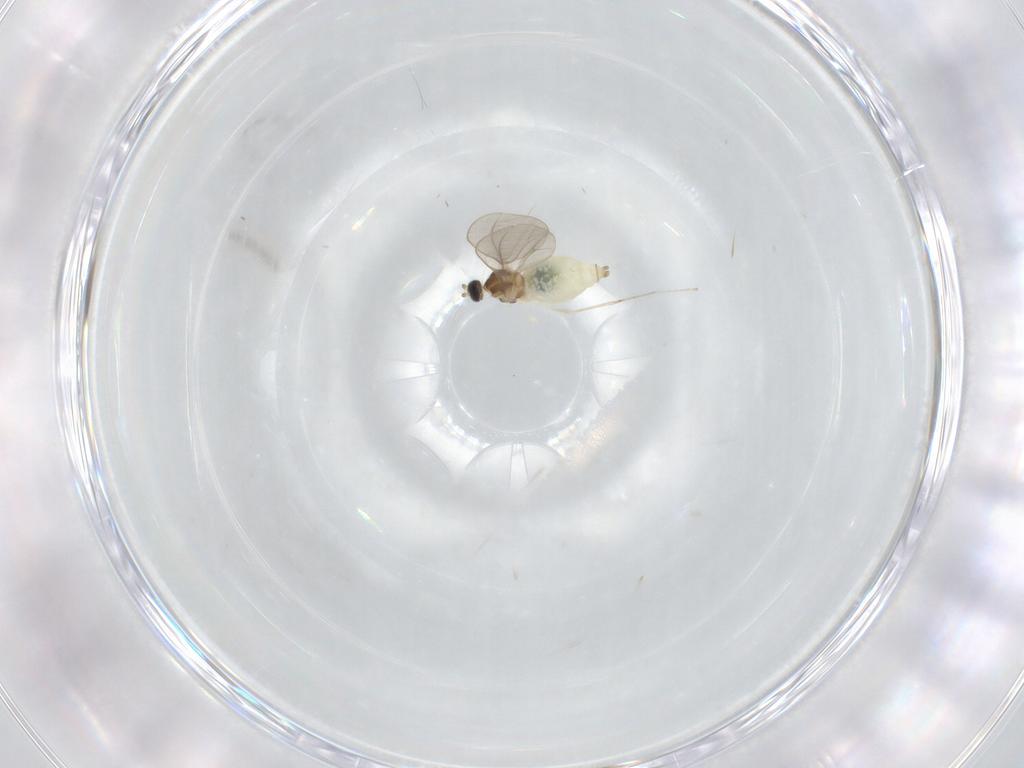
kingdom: Animalia
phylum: Arthropoda
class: Insecta
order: Diptera
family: Cecidomyiidae
